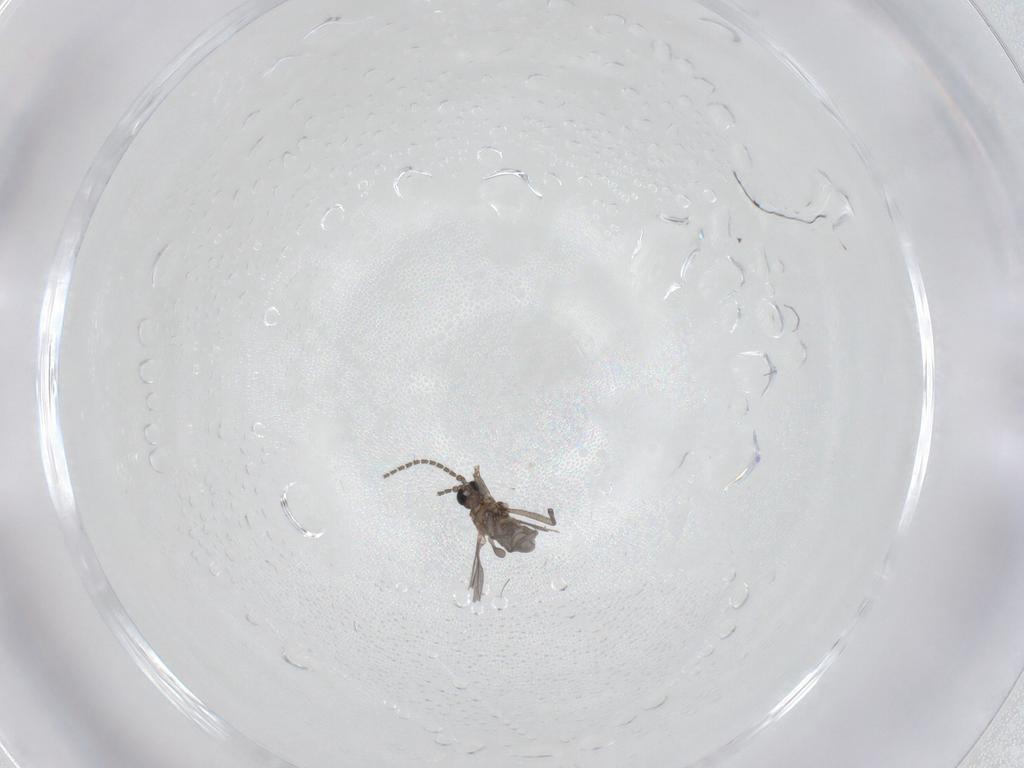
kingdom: Animalia
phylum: Arthropoda
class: Insecta
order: Diptera
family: Sciaridae
